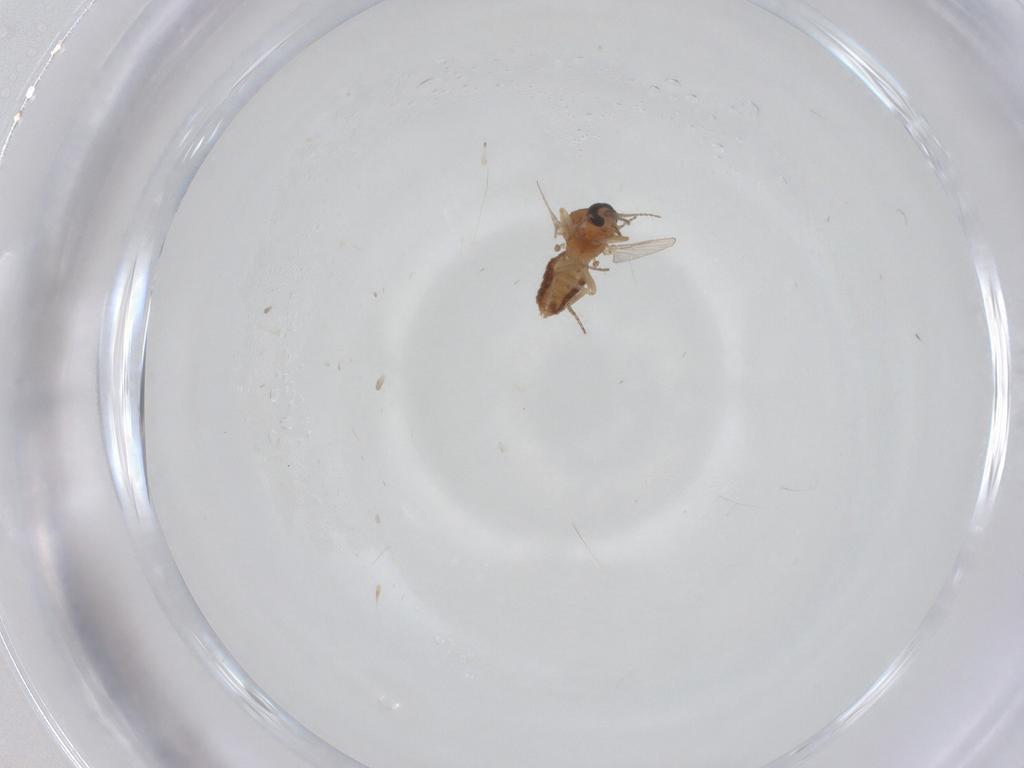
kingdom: Animalia
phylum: Arthropoda
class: Insecta
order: Diptera
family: Ceratopogonidae
